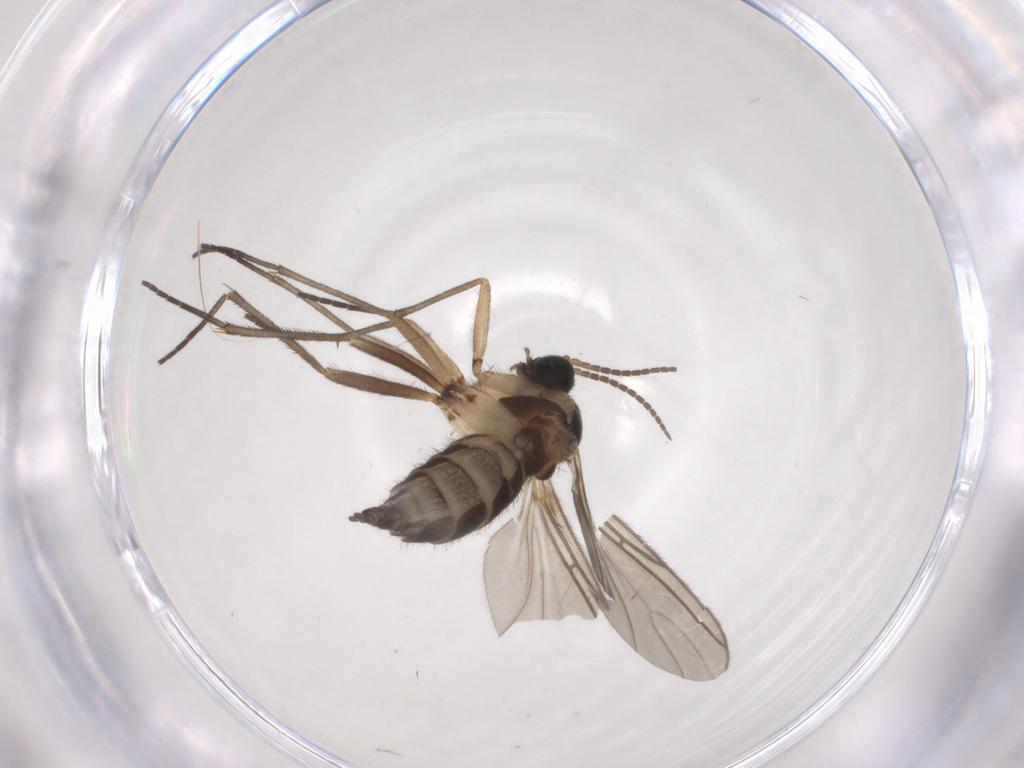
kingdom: Animalia
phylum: Arthropoda
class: Insecta
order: Diptera
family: Sciaridae
